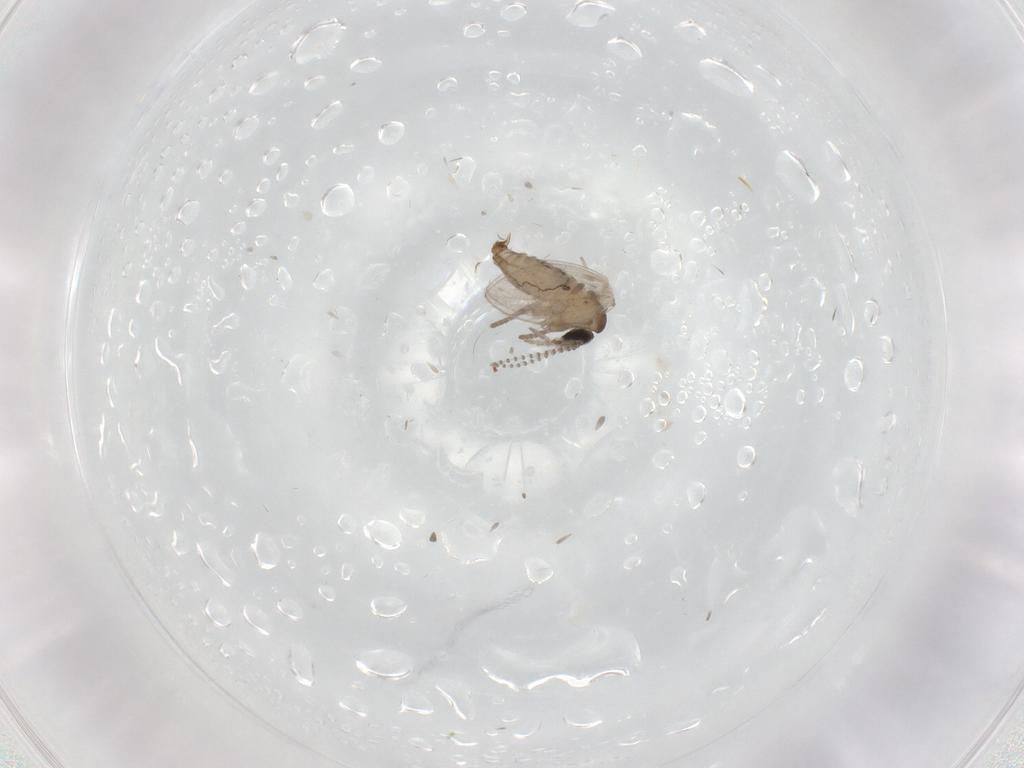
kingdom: Animalia
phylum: Arthropoda
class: Insecta
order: Diptera
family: Psychodidae
